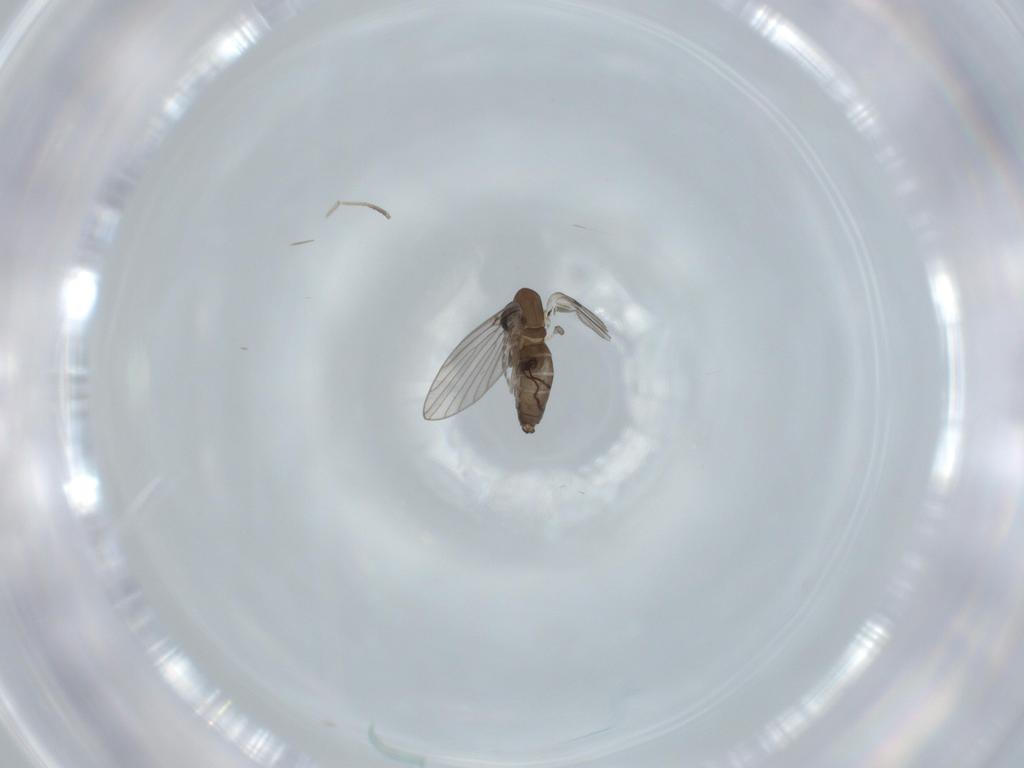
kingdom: Animalia
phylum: Arthropoda
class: Insecta
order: Diptera
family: Psychodidae
